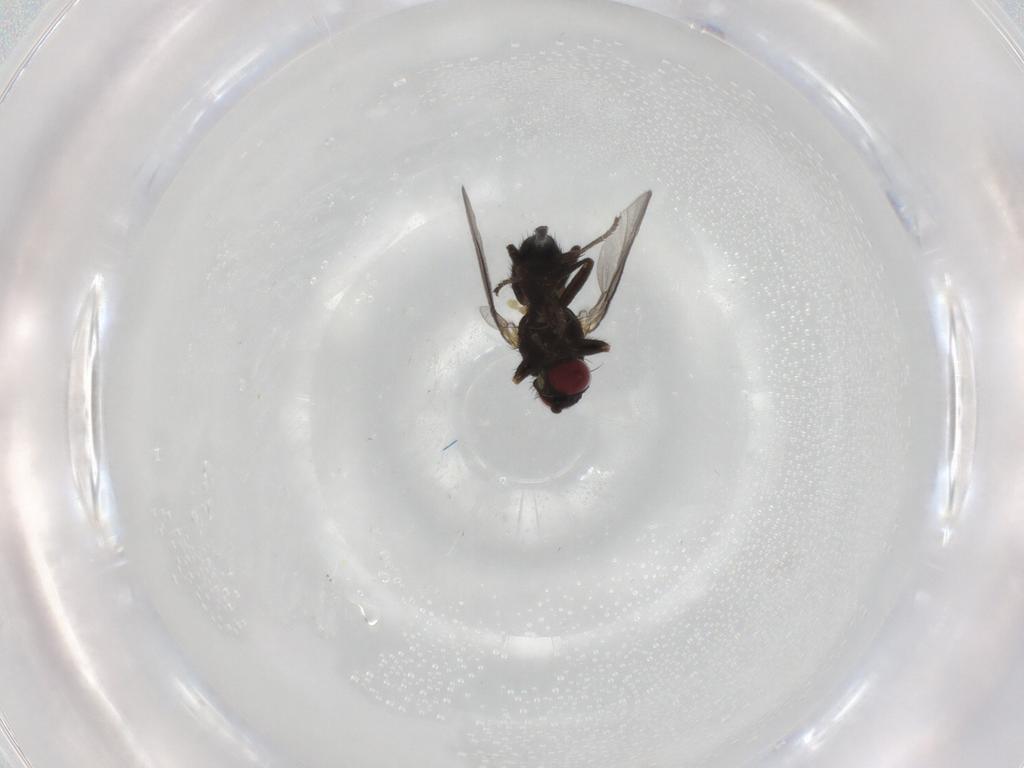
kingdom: Animalia
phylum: Arthropoda
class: Insecta
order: Diptera
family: Agromyzidae
